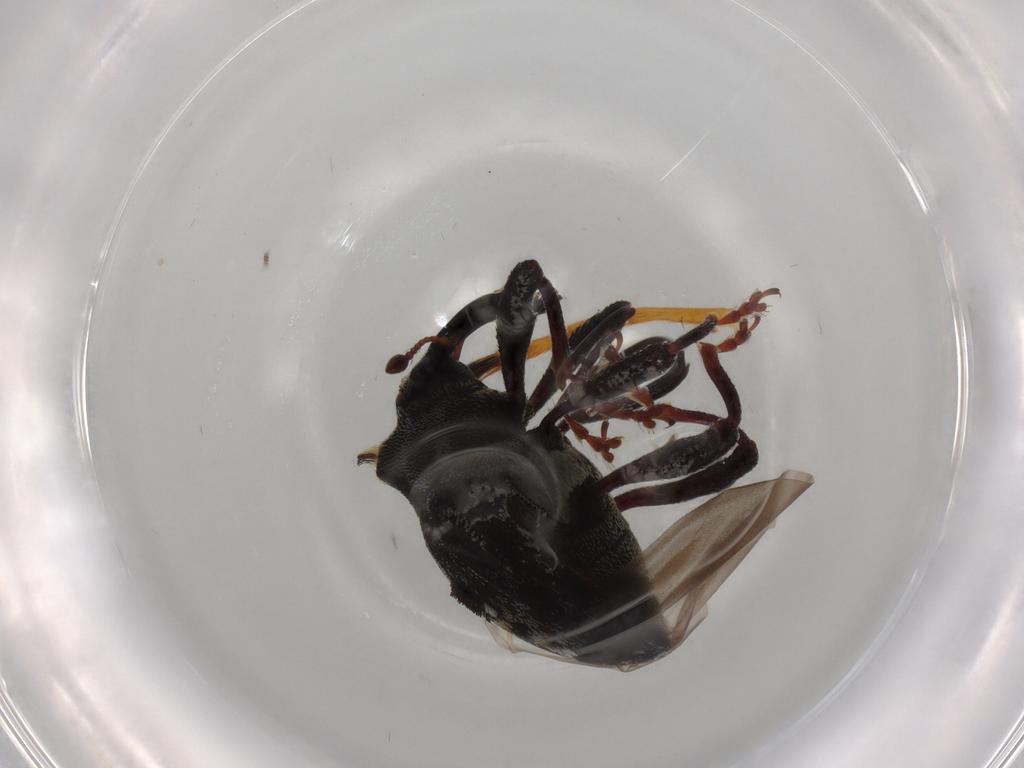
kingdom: Animalia
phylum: Arthropoda
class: Insecta
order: Coleoptera
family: Curculionidae
